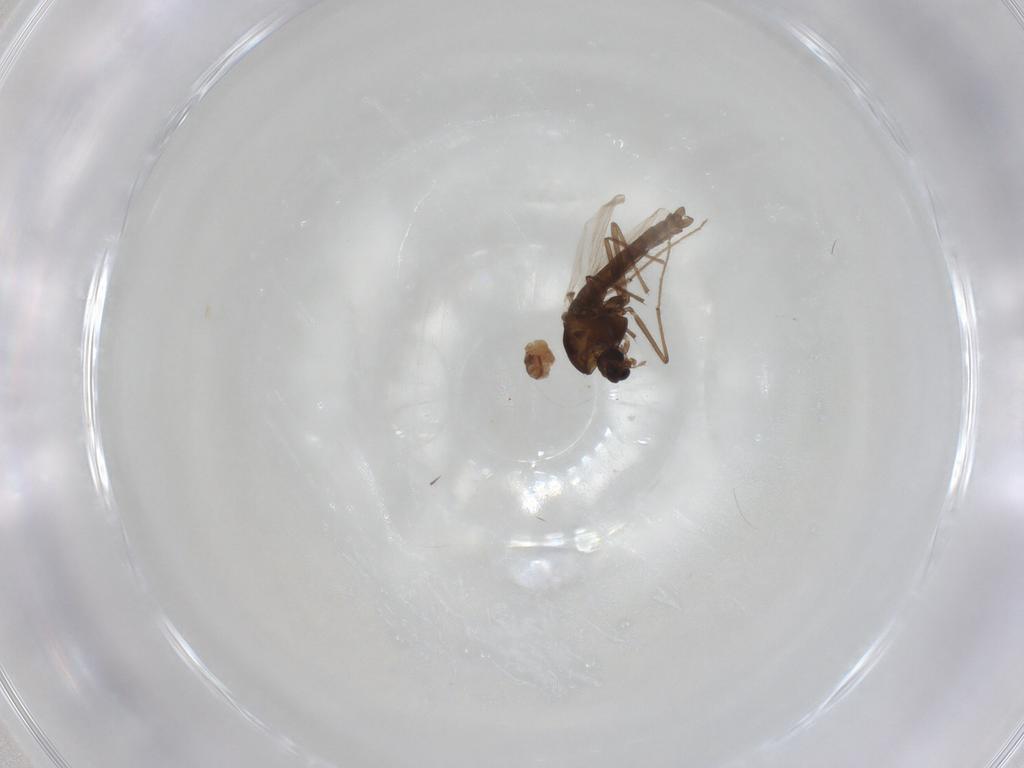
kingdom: Animalia
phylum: Arthropoda
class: Insecta
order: Diptera
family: Chironomidae
